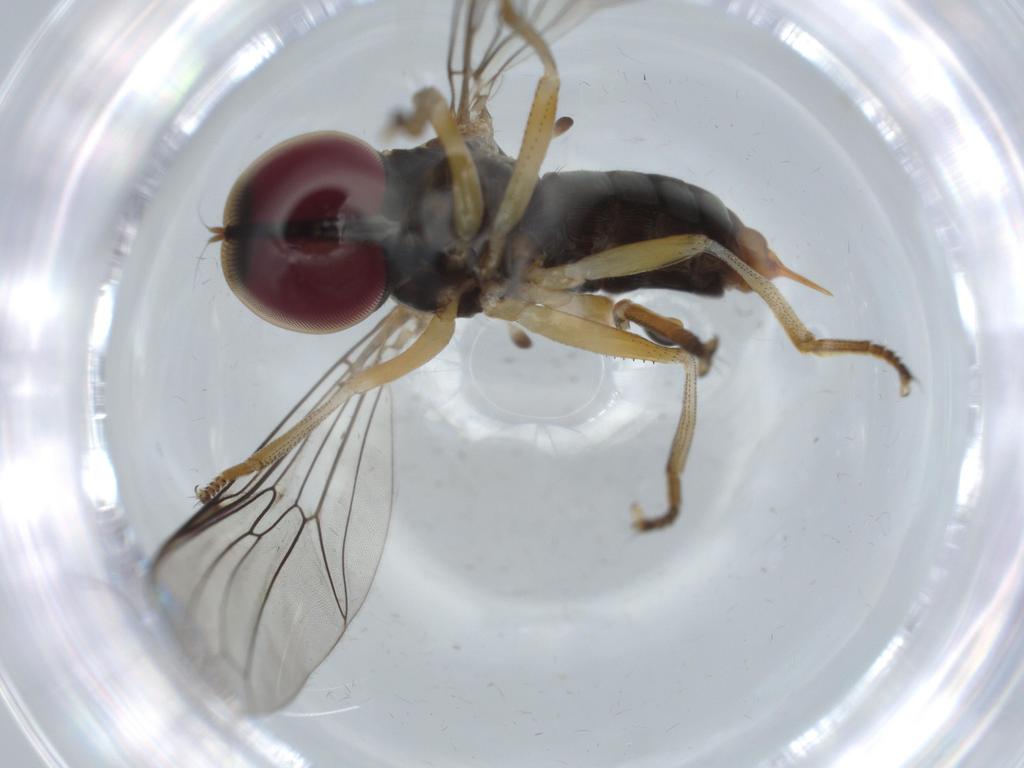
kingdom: Animalia
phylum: Arthropoda
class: Insecta
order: Diptera
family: Pipunculidae
